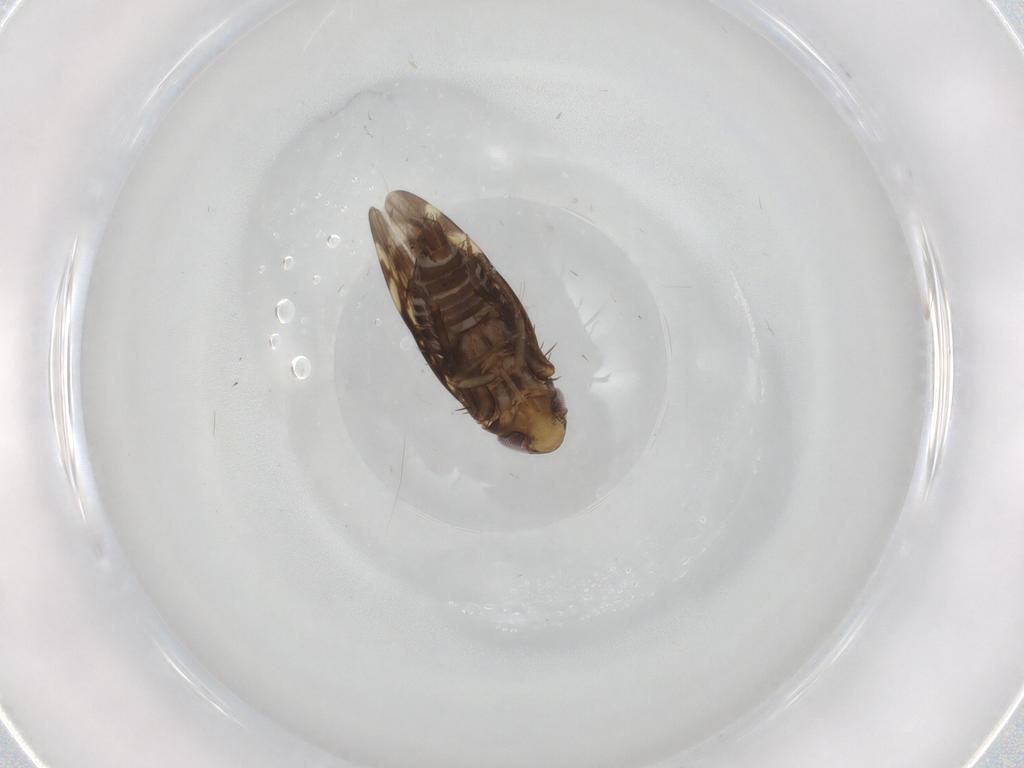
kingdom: Animalia
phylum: Arthropoda
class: Insecta
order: Hemiptera
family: Cicadellidae
